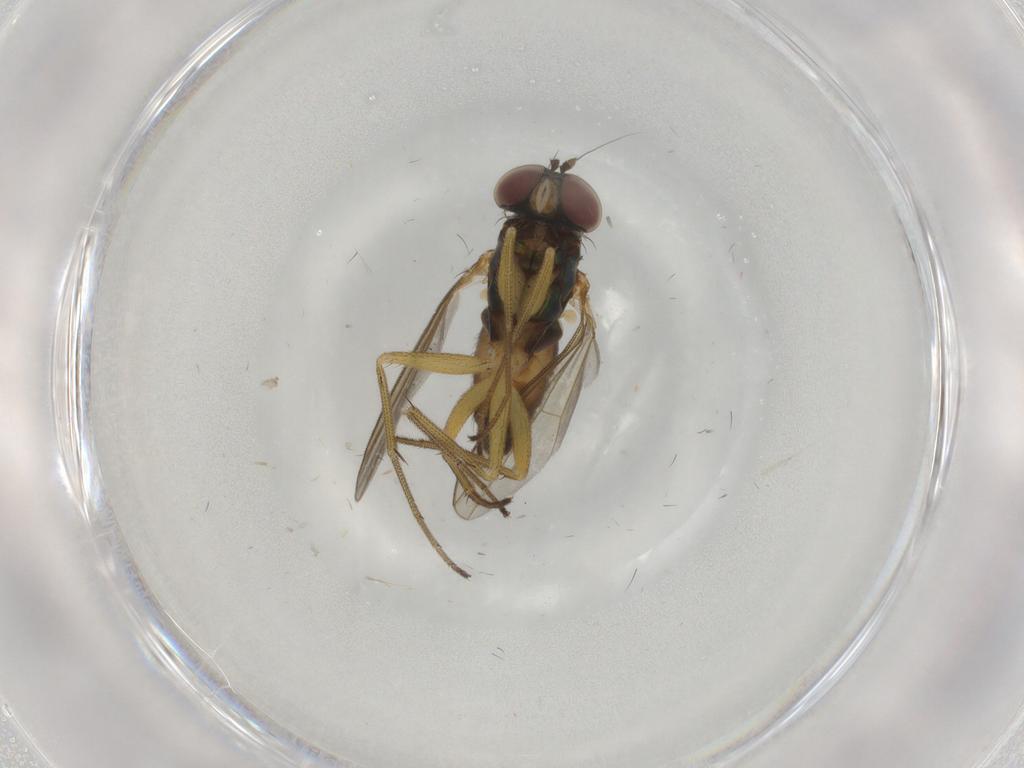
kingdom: Animalia
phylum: Arthropoda
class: Insecta
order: Diptera
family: Dolichopodidae
